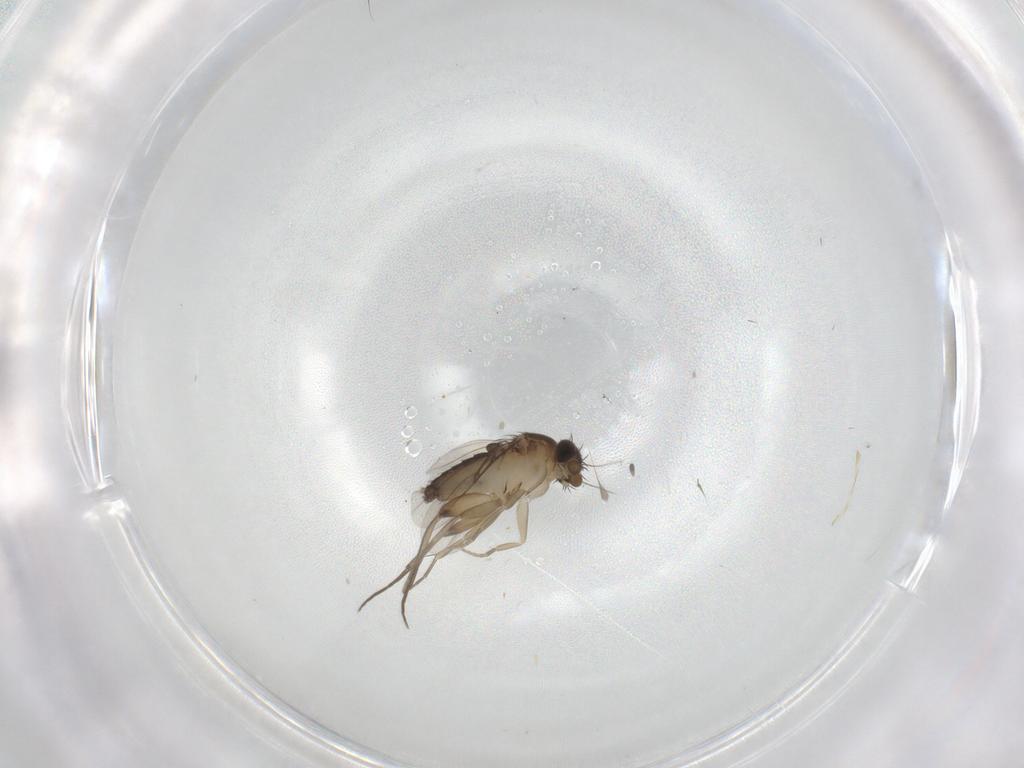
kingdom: Animalia
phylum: Arthropoda
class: Insecta
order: Diptera
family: Phoridae
